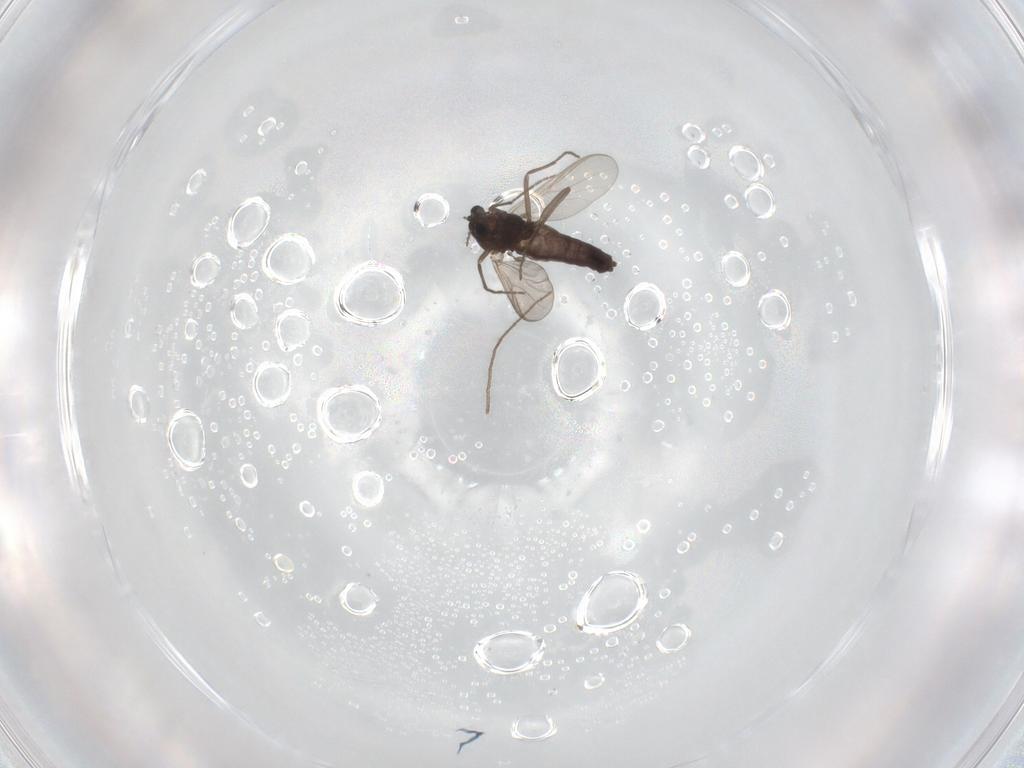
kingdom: Animalia
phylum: Arthropoda
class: Insecta
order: Diptera
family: Chironomidae
